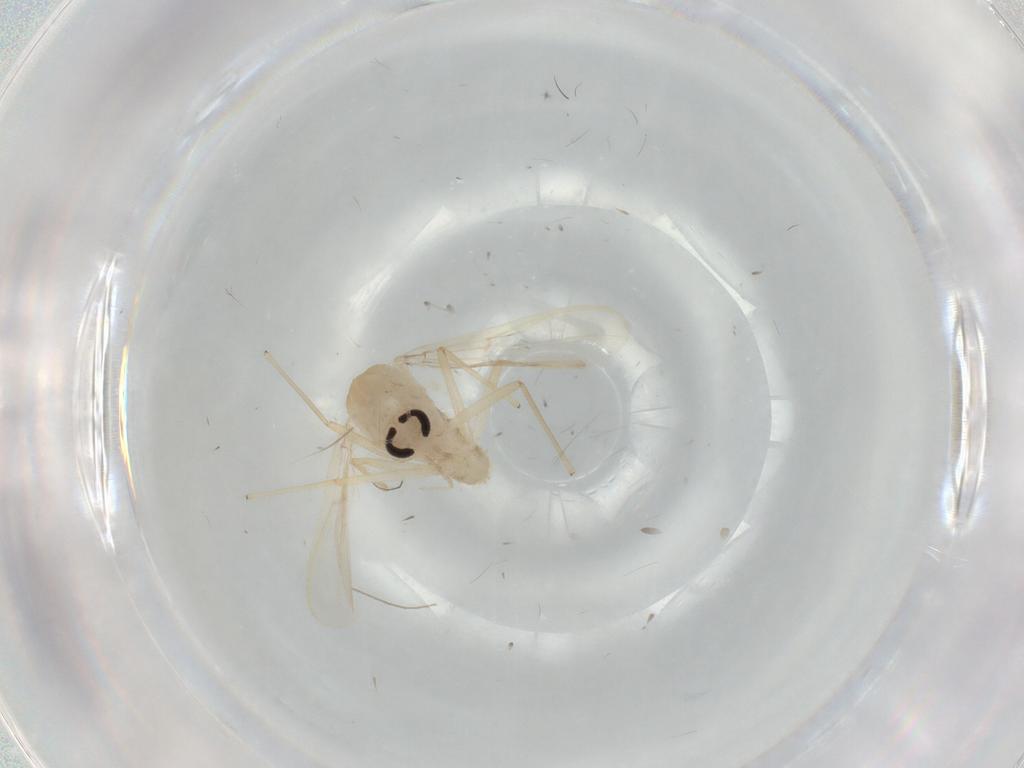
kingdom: Animalia
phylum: Arthropoda
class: Insecta
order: Diptera
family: Chironomidae
